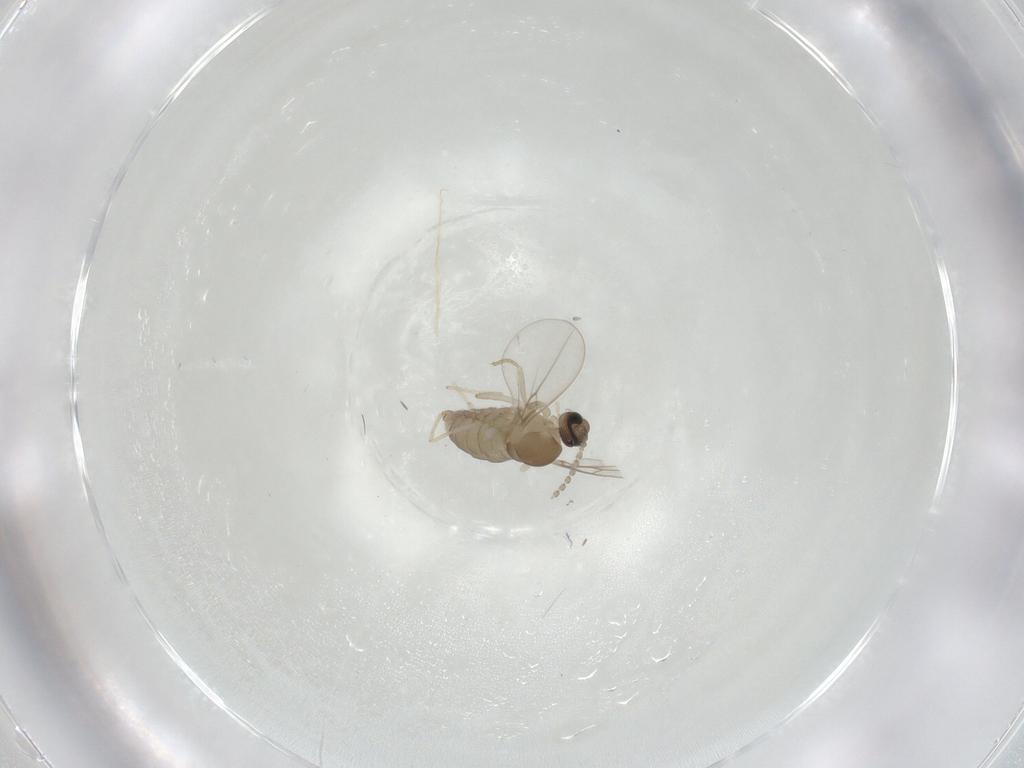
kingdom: Animalia
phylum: Arthropoda
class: Insecta
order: Diptera
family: Cecidomyiidae
